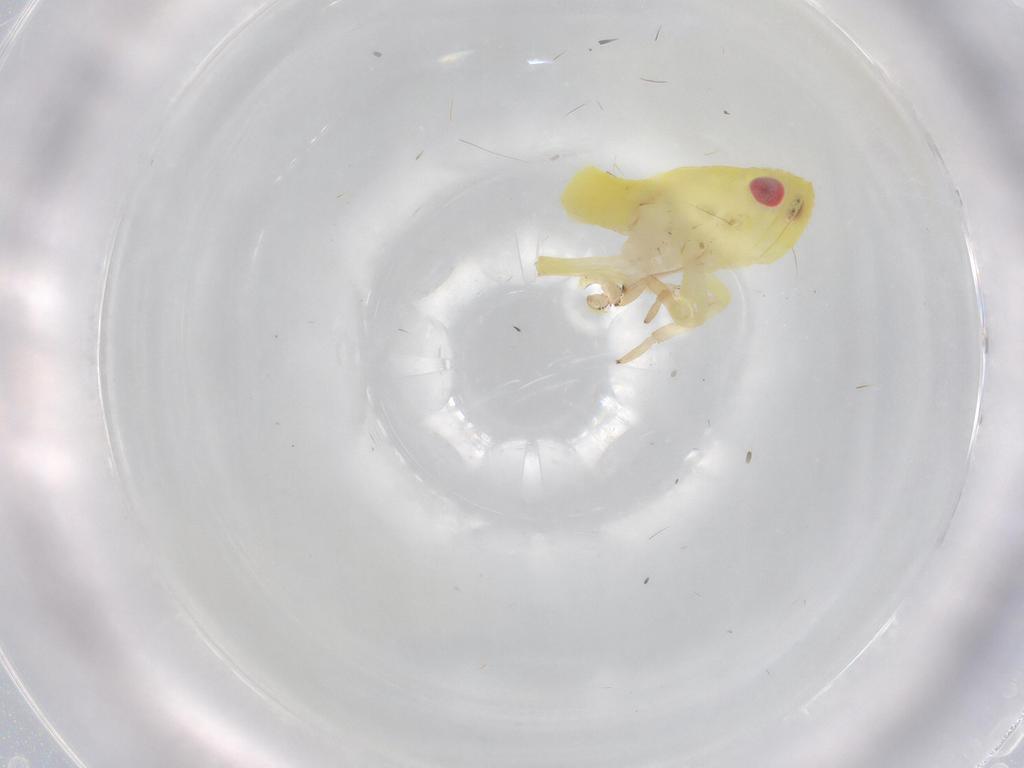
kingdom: Animalia
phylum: Arthropoda
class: Insecta
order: Hemiptera
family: Tropiduchidae
